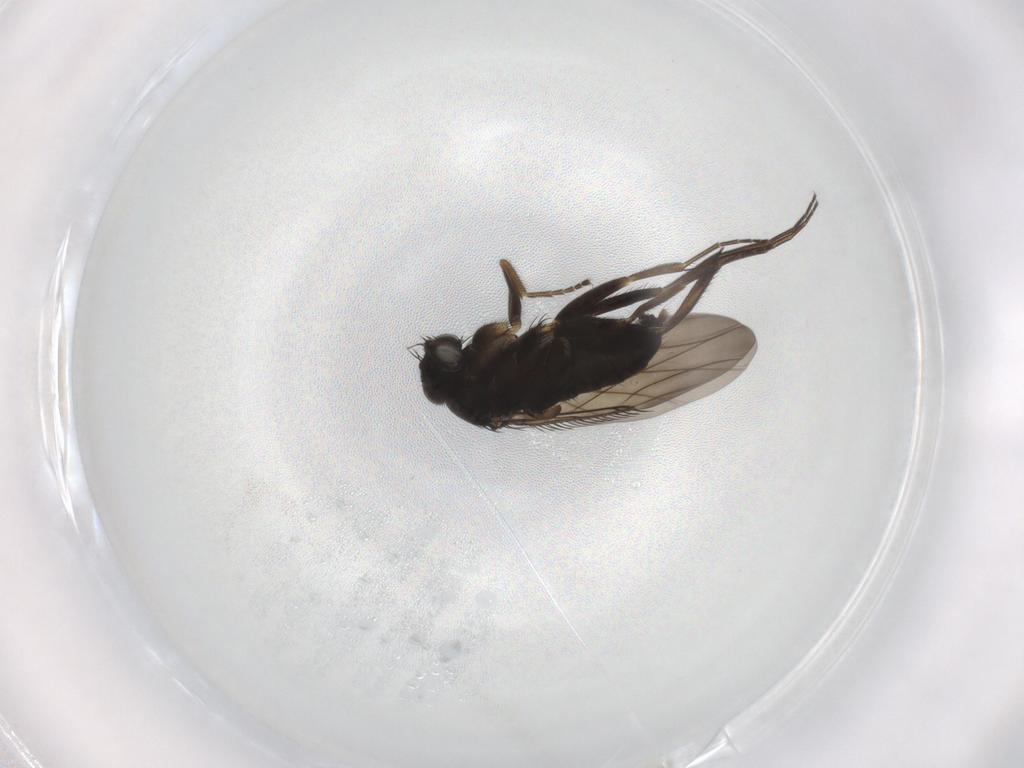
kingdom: Animalia
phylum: Arthropoda
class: Insecta
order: Diptera
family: Phoridae
